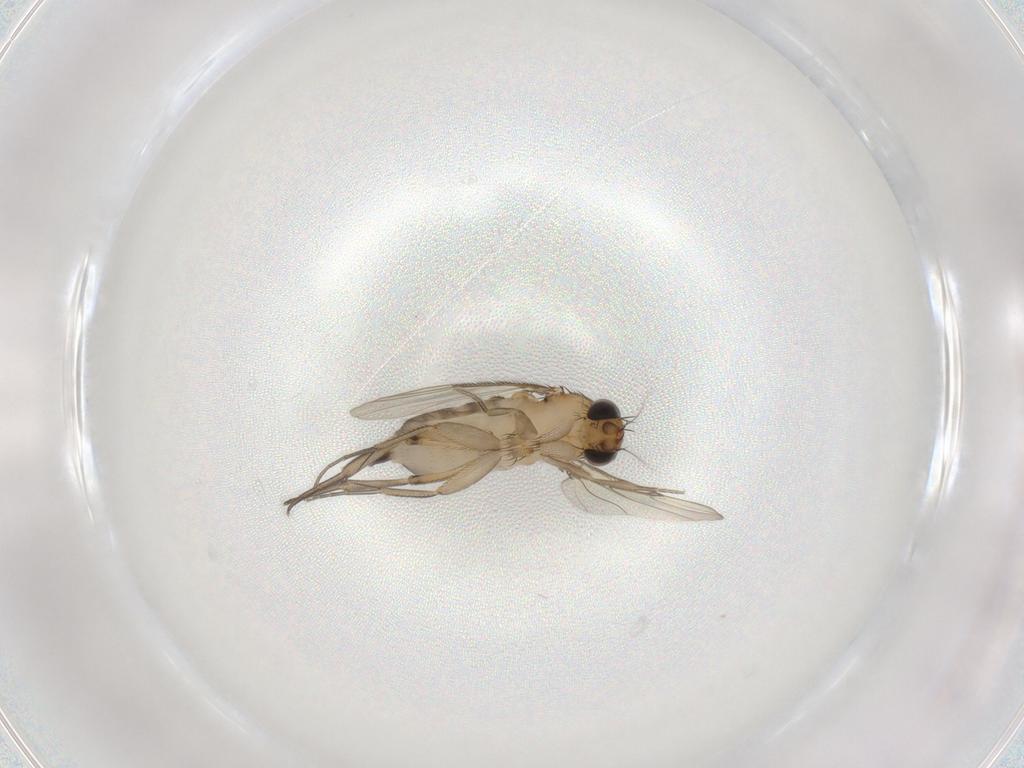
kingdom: Animalia
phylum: Arthropoda
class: Insecta
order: Diptera
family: Phoridae
